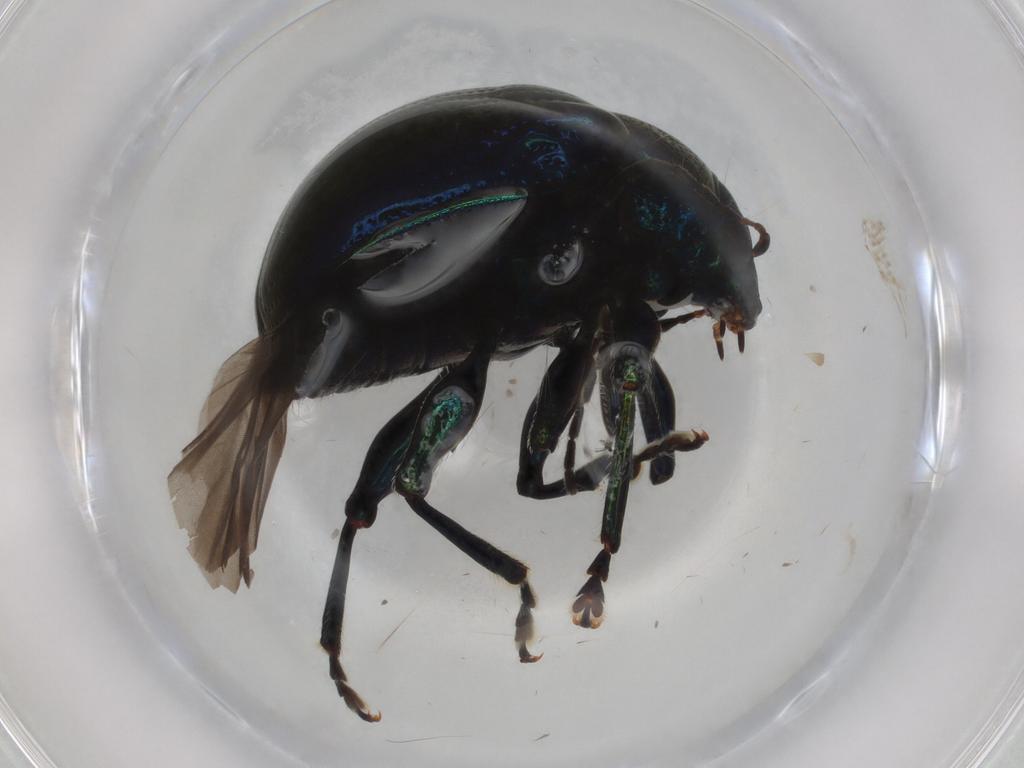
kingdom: Animalia
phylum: Arthropoda
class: Insecta
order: Coleoptera
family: Chrysomelidae
